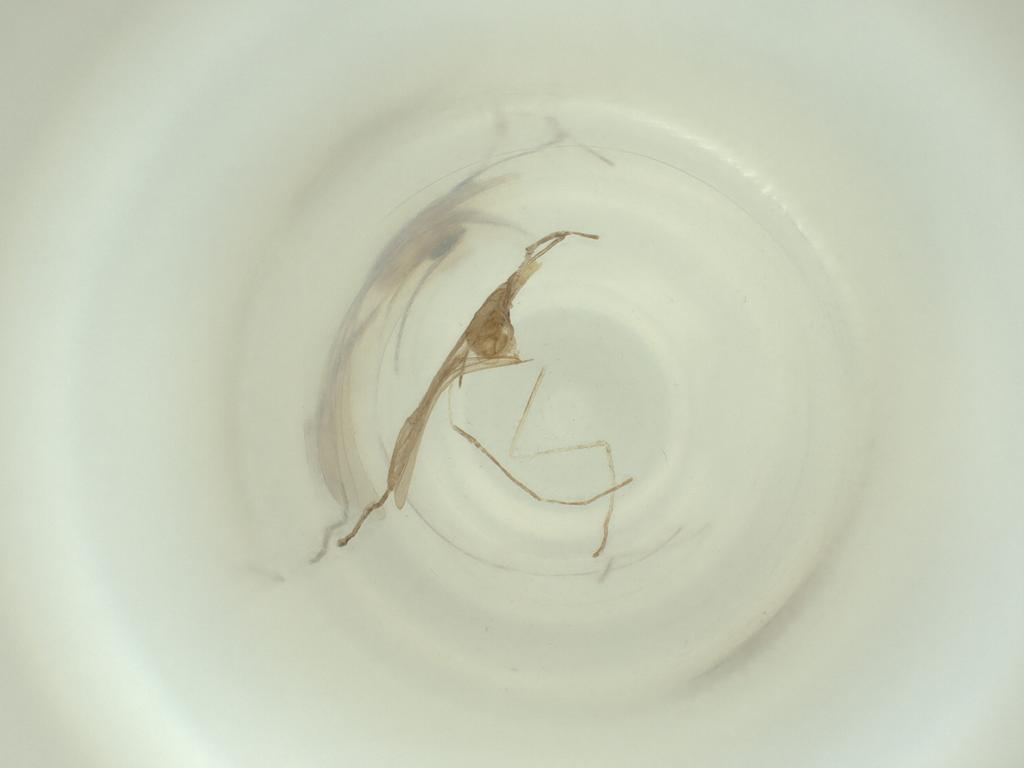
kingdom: Animalia
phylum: Arthropoda
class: Insecta
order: Diptera
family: Cecidomyiidae
